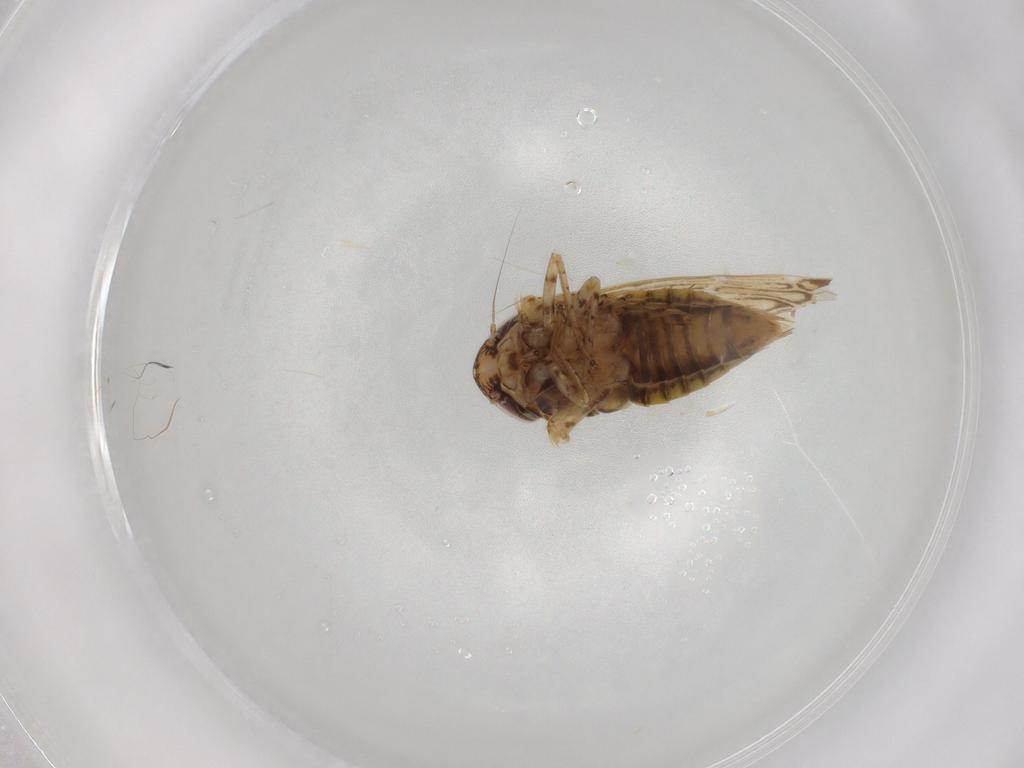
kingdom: Animalia
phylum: Arthropoda
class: Insecta
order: Hemiptera
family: Cicadellidae
